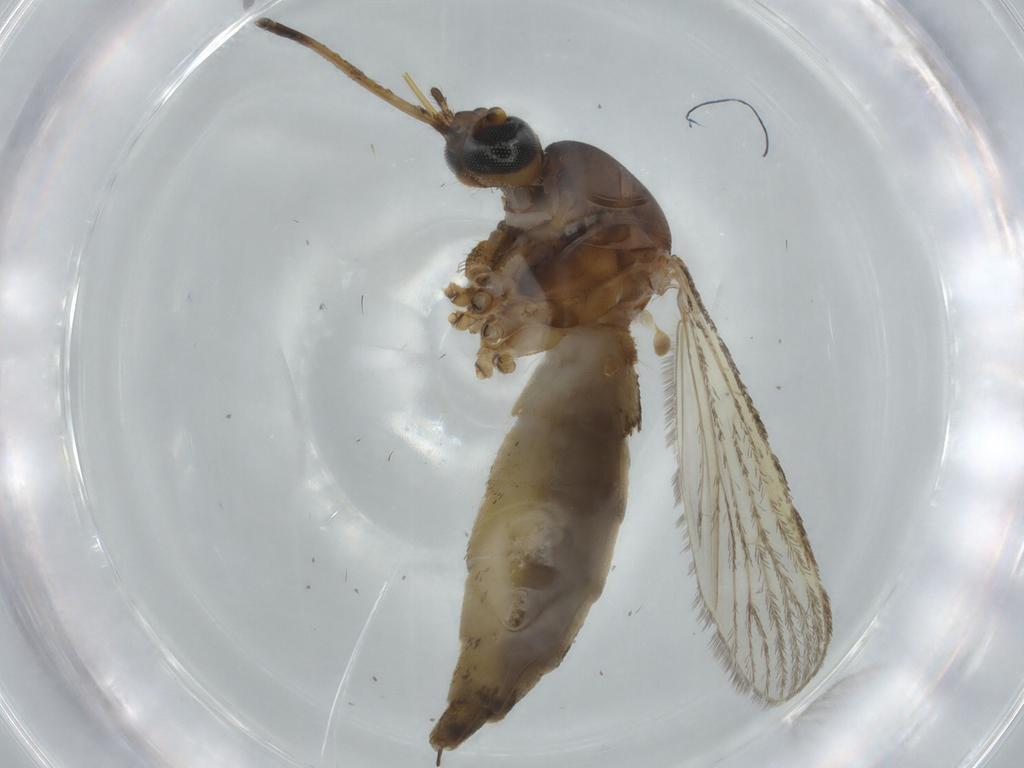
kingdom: Animalia
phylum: Arthropoda
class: Insecta
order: Diptera
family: Culicidae
